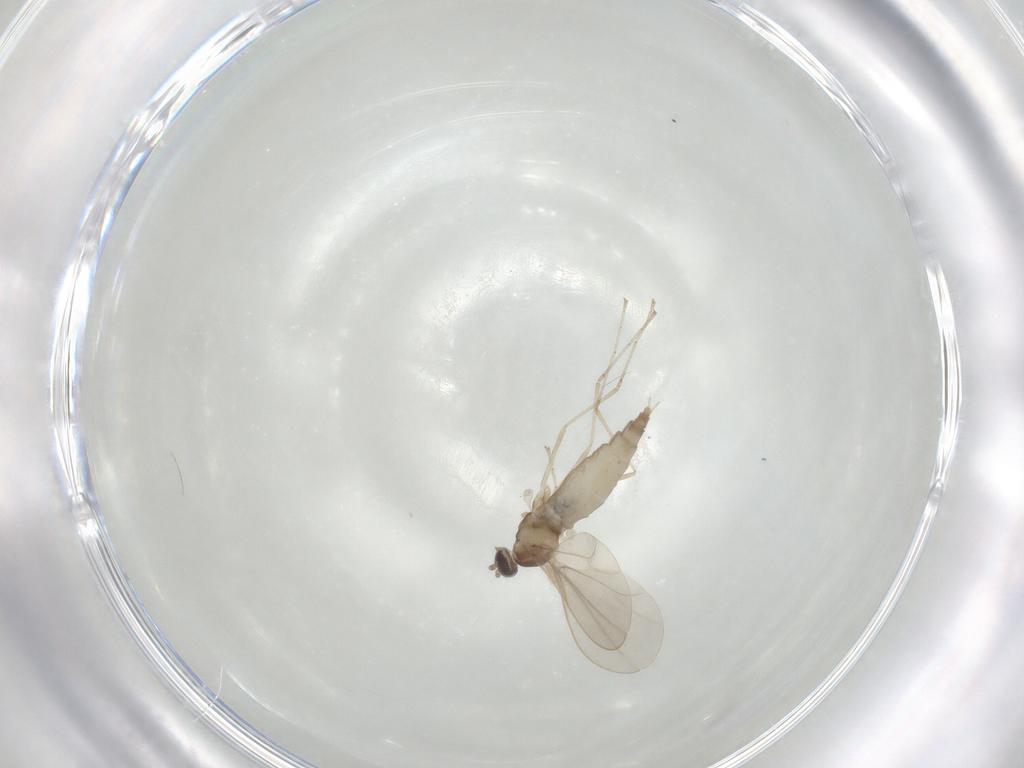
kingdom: Animalia
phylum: Arthropoda
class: Insecta
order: Diptera
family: Cecidomyiidae
